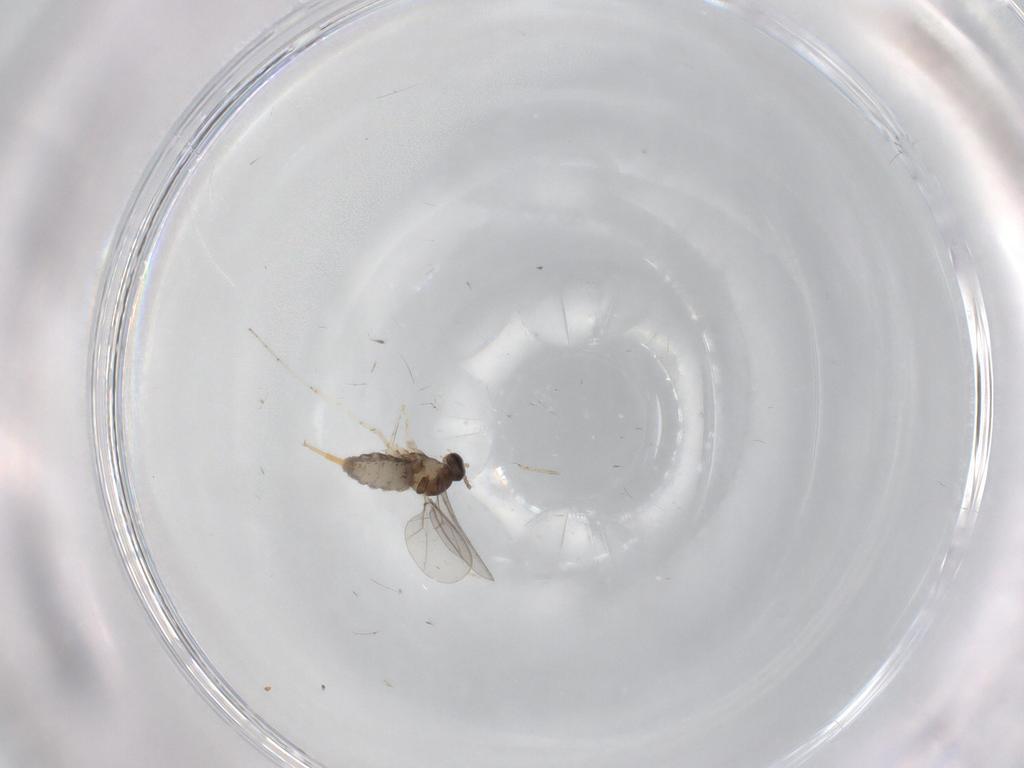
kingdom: Animalia
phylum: Arthropoda
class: Insecta
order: Diptera
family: Cecidomyiidae
